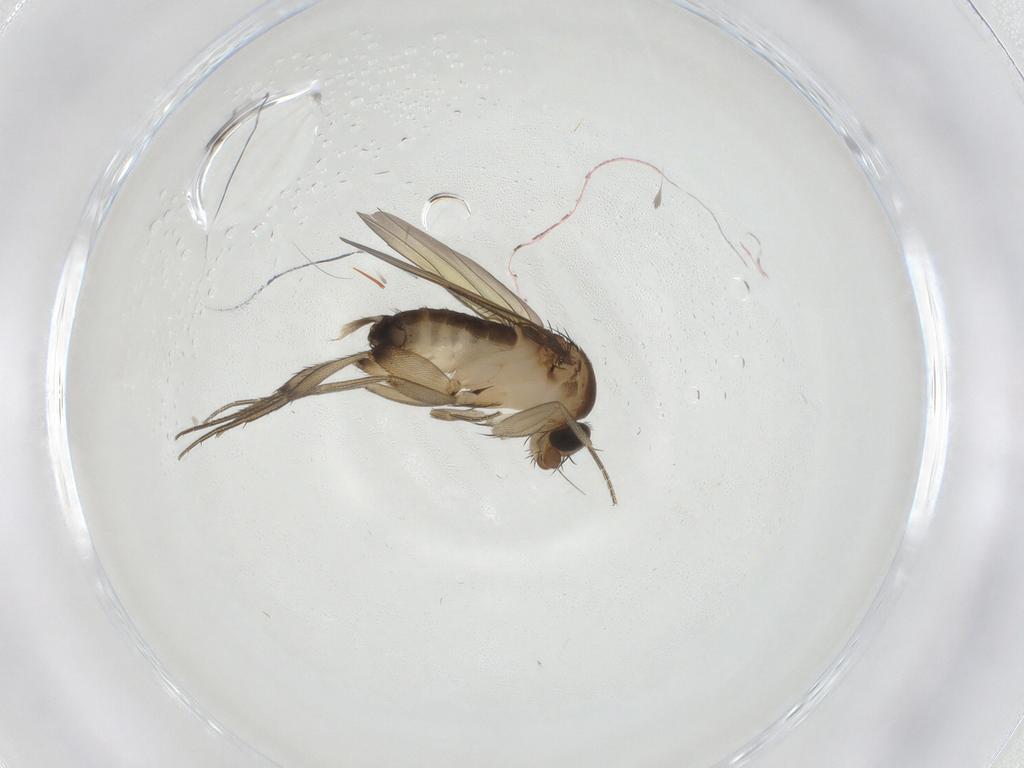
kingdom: Animalia
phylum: Arthropoda
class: Insecta
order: Diptera
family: Phoridae
